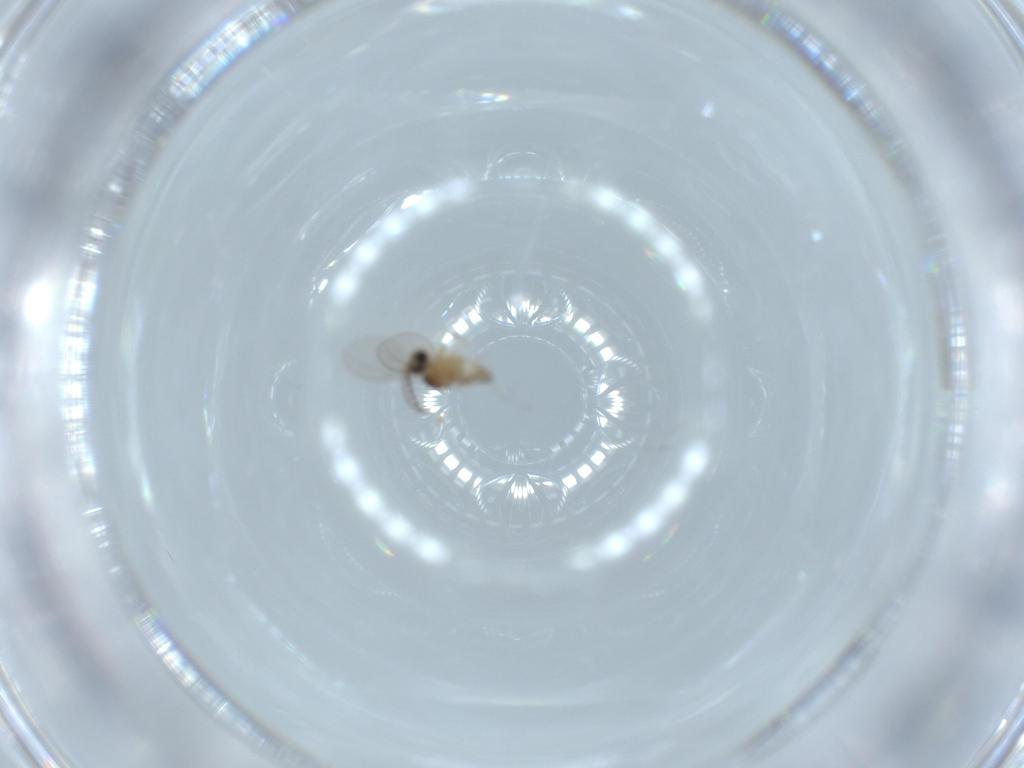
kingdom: Animalia
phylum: Arthropoda
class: Insecta
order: Diptera
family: Cecidomyiidae
